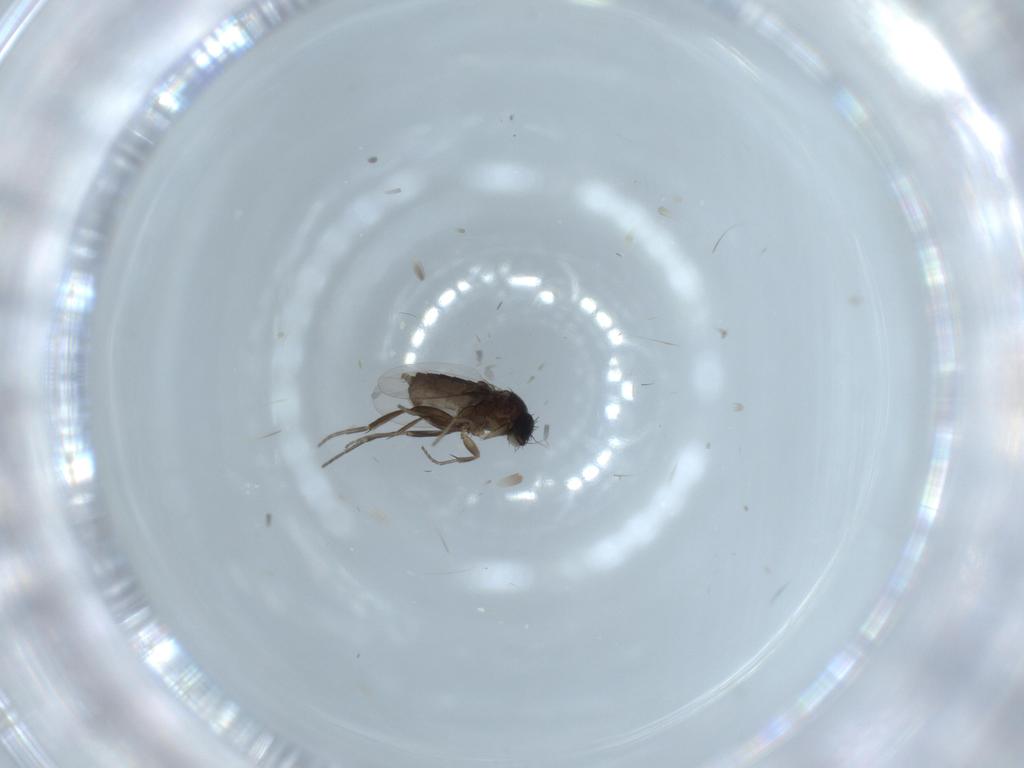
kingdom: Animalia
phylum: Arthropoda
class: Insecta
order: Diptera
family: Phoridae
